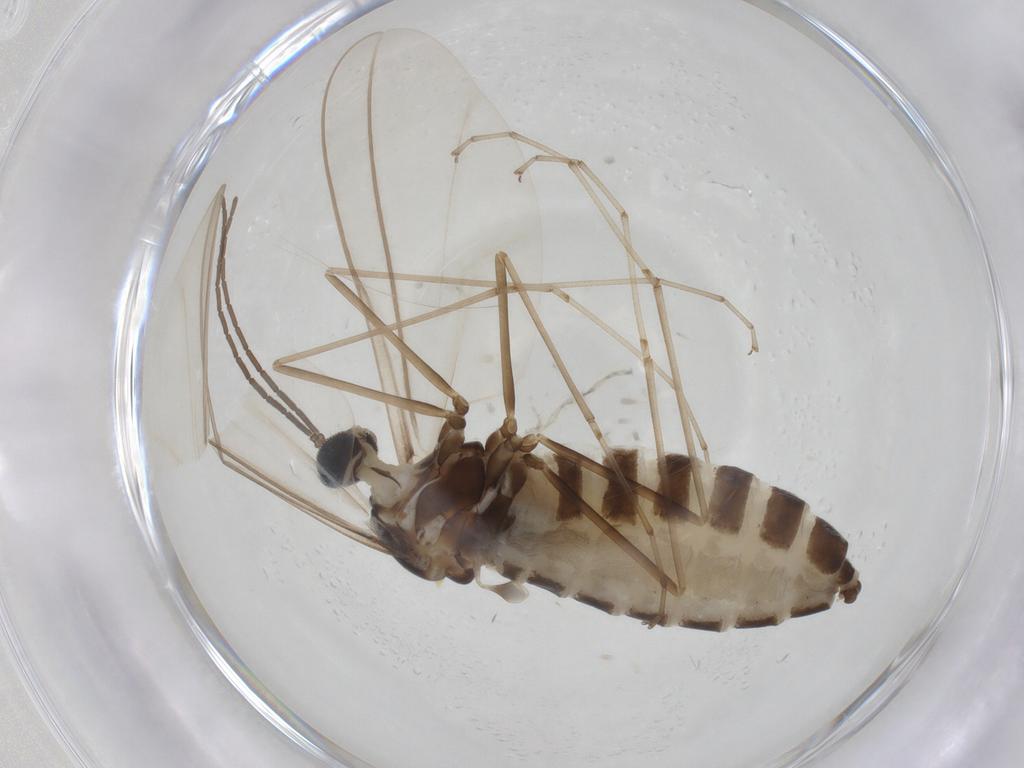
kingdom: Animalia
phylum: Arthropoda
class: Insecta
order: Diptera
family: Cecidomyiidae
